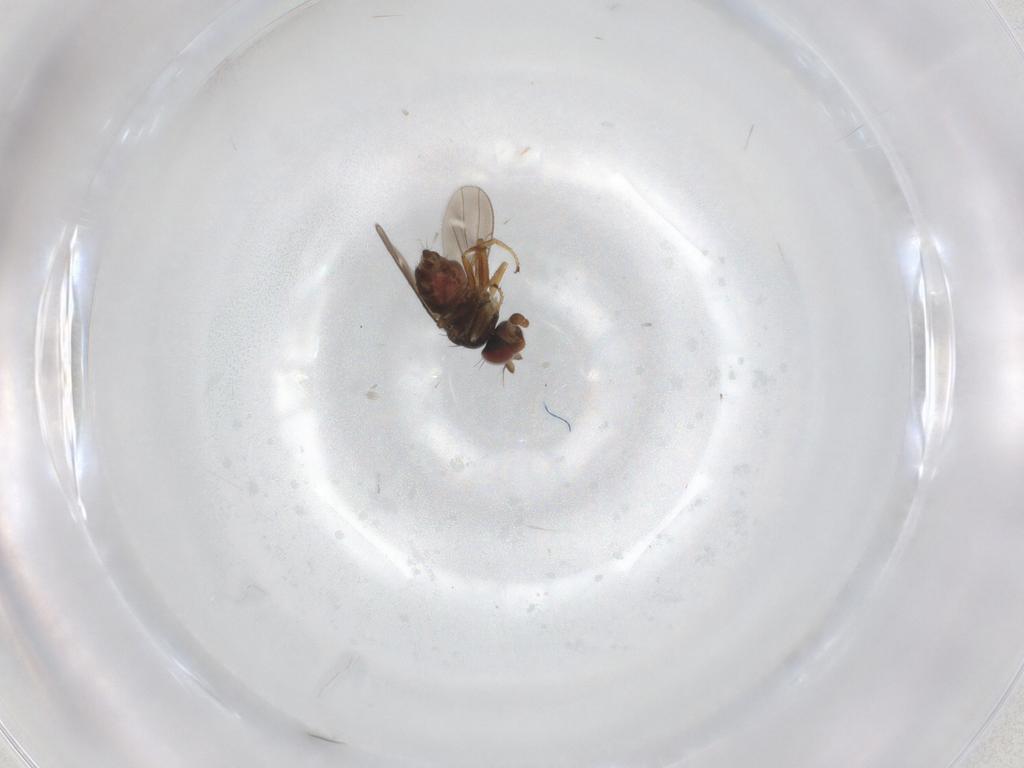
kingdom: Animalia
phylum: Arthropoda
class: Insecta
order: Diptera
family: Ephydridae
